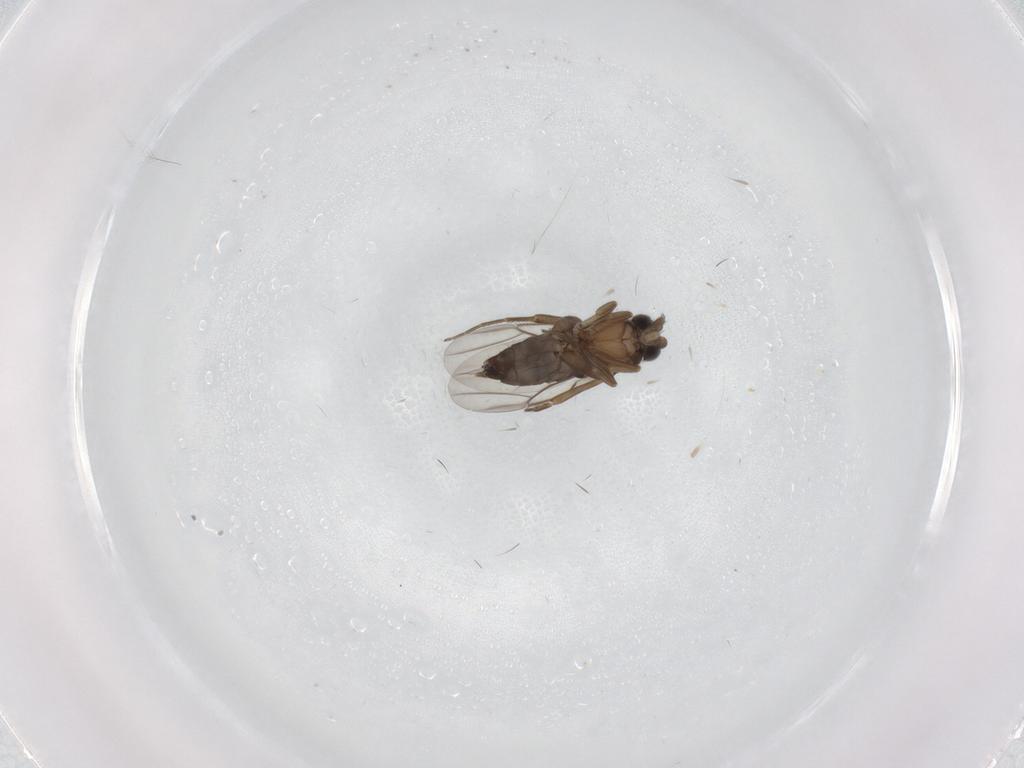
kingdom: Animalia
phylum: Arthropoda
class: Insecta
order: Diptera
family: Phoridae
